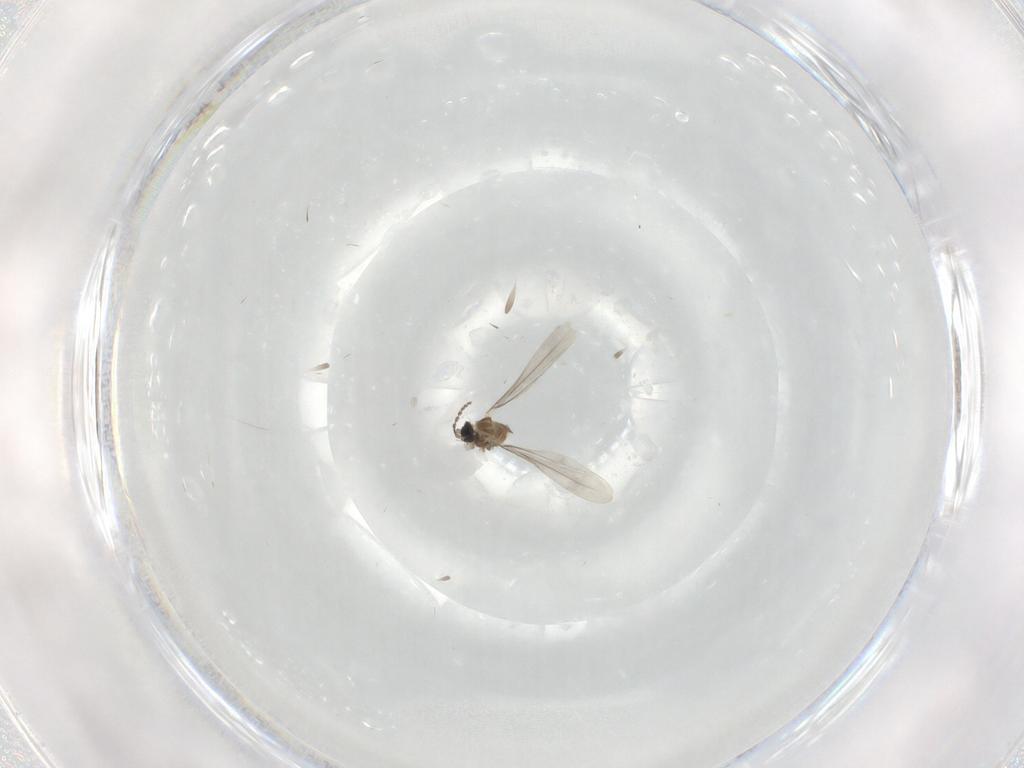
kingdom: Animalia
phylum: Arthropoda
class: Insecta
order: Diptera
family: Cecidomyiidae
